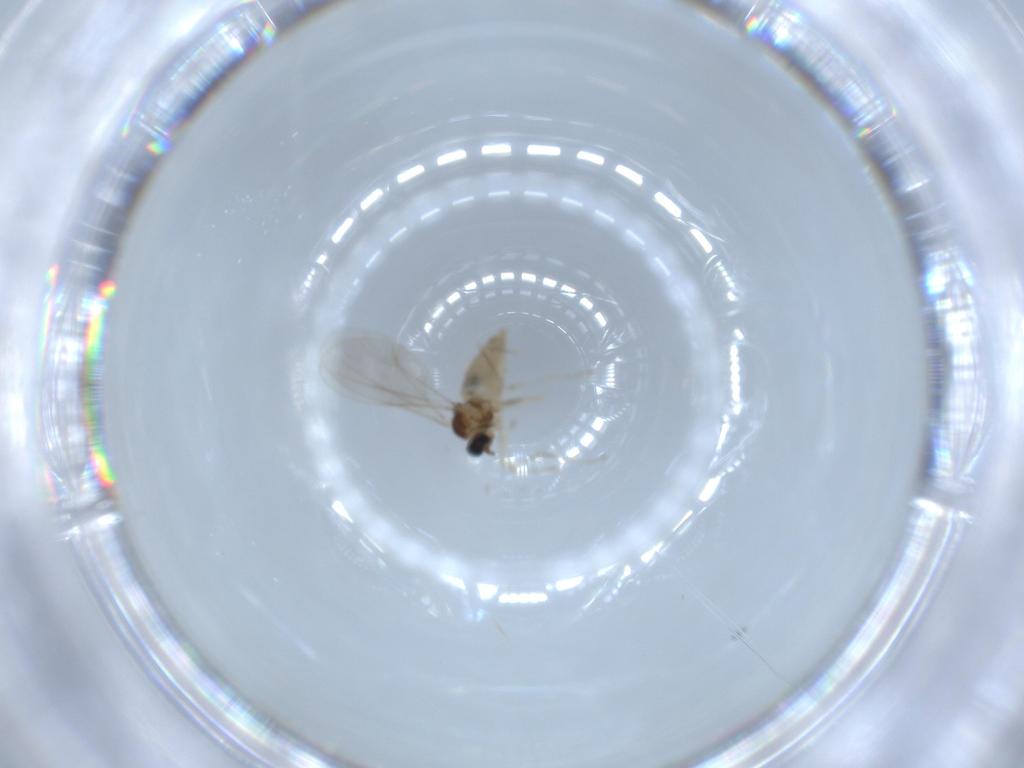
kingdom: Animalia
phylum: Arthropoda
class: Insecta
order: Diptera
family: Cecidomyiidae
